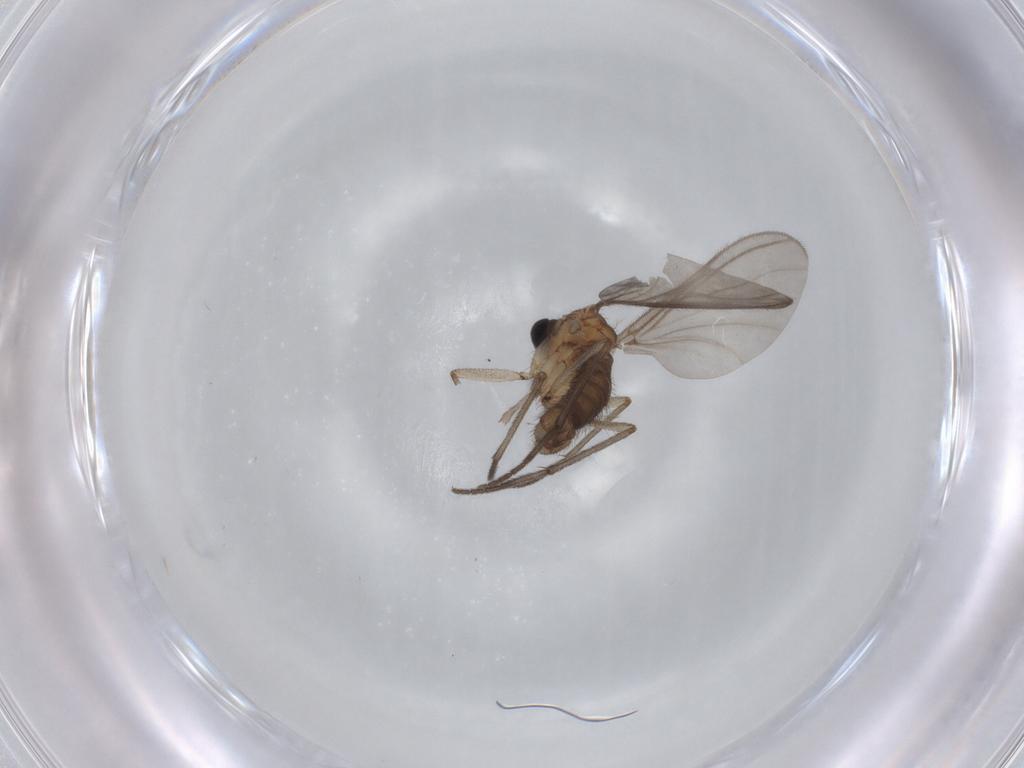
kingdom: Animalia
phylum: Arthropoda
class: Insecta
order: Diptera
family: Sciaridae
